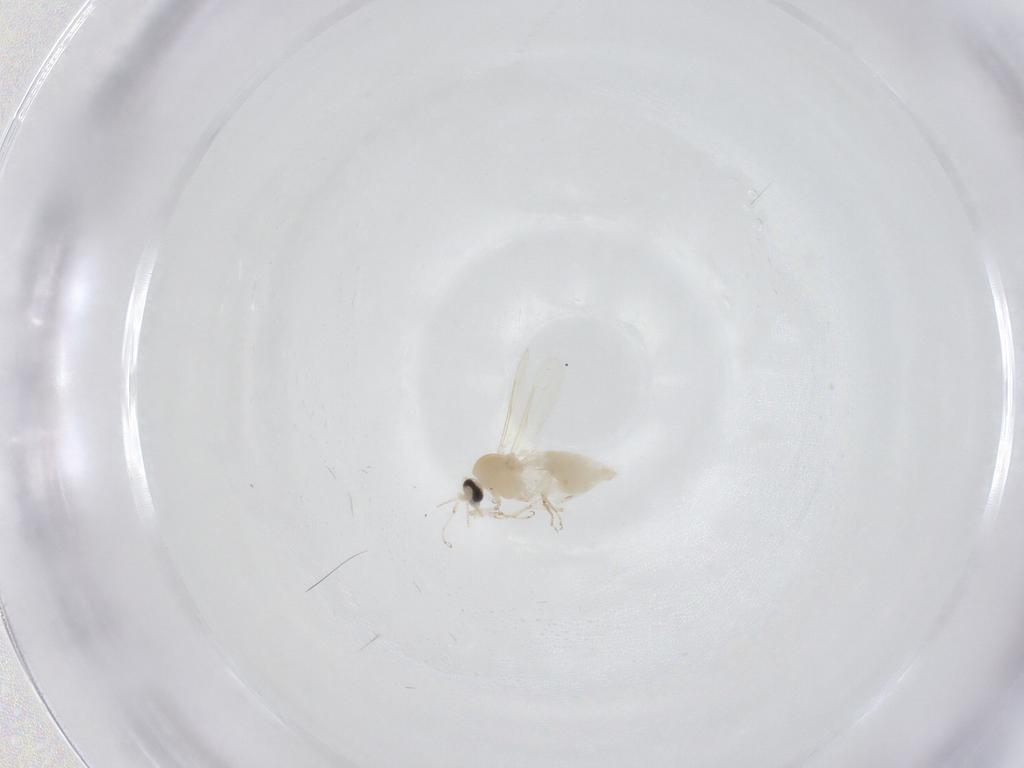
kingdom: Animalia
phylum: Arthropoda
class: Insecta
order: Diptera
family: Ceratopogonidae
